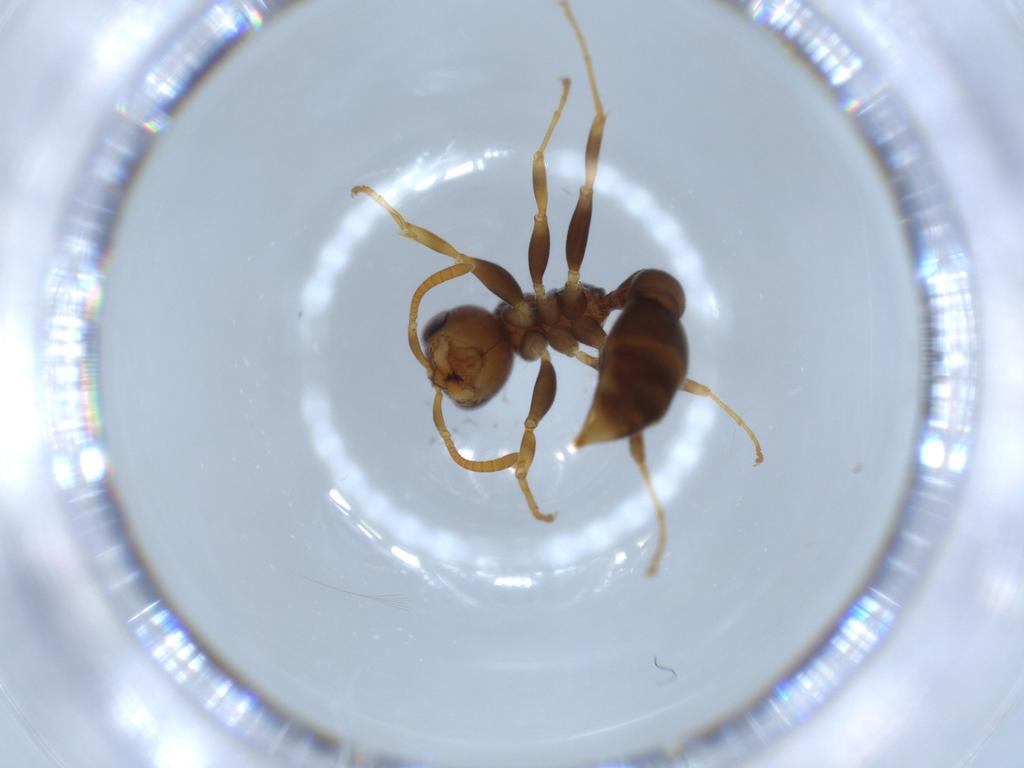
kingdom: Animalia
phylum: Arthropoda
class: Insecta
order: Hymenoptera
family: Formicidae
